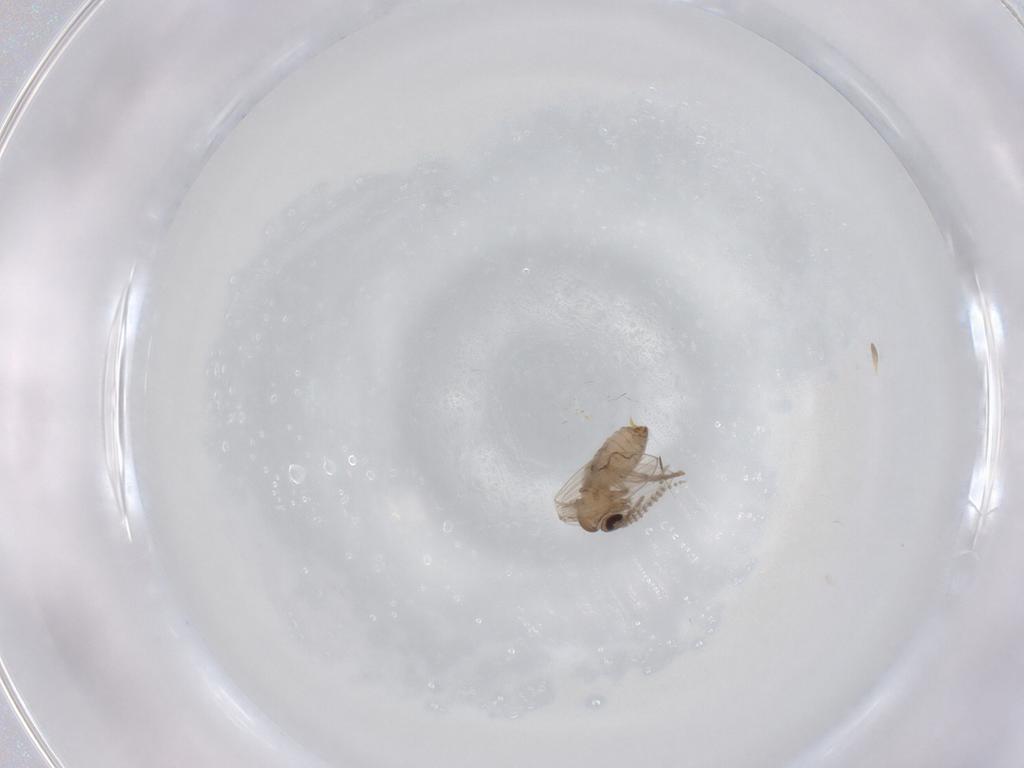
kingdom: Animalia
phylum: Arthropoda
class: Insecta
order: Diptera
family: Psychodidae
